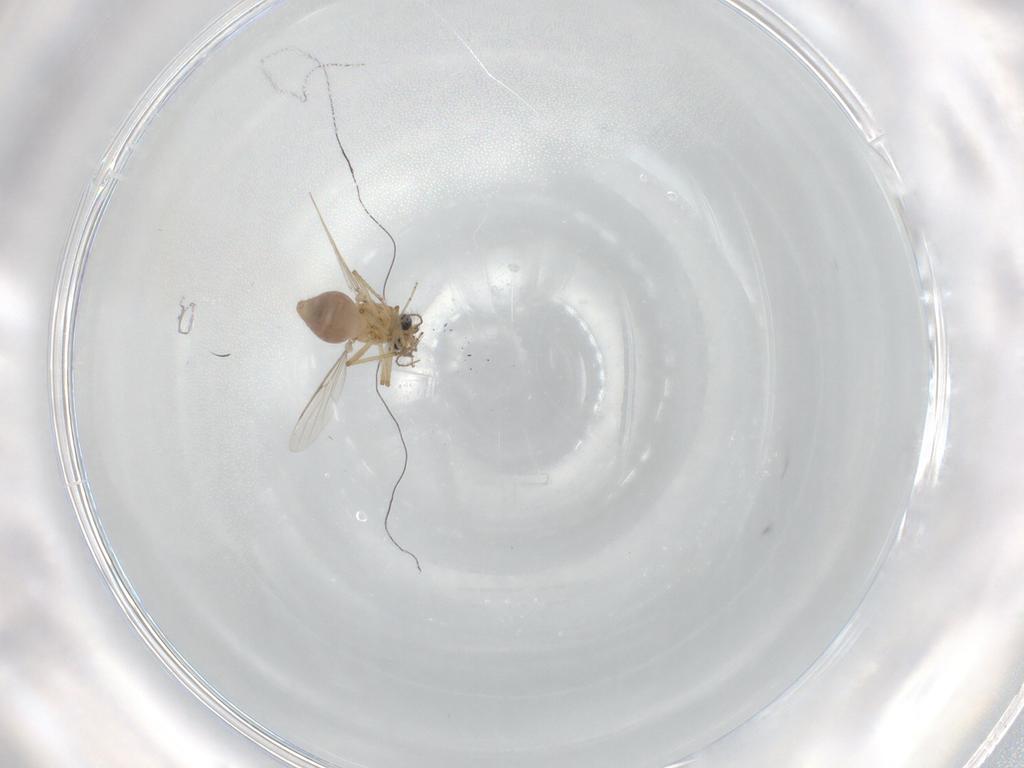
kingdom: Animalia
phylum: Arthropoda
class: Insecta
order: Diptera
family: Ceratopogonidae
